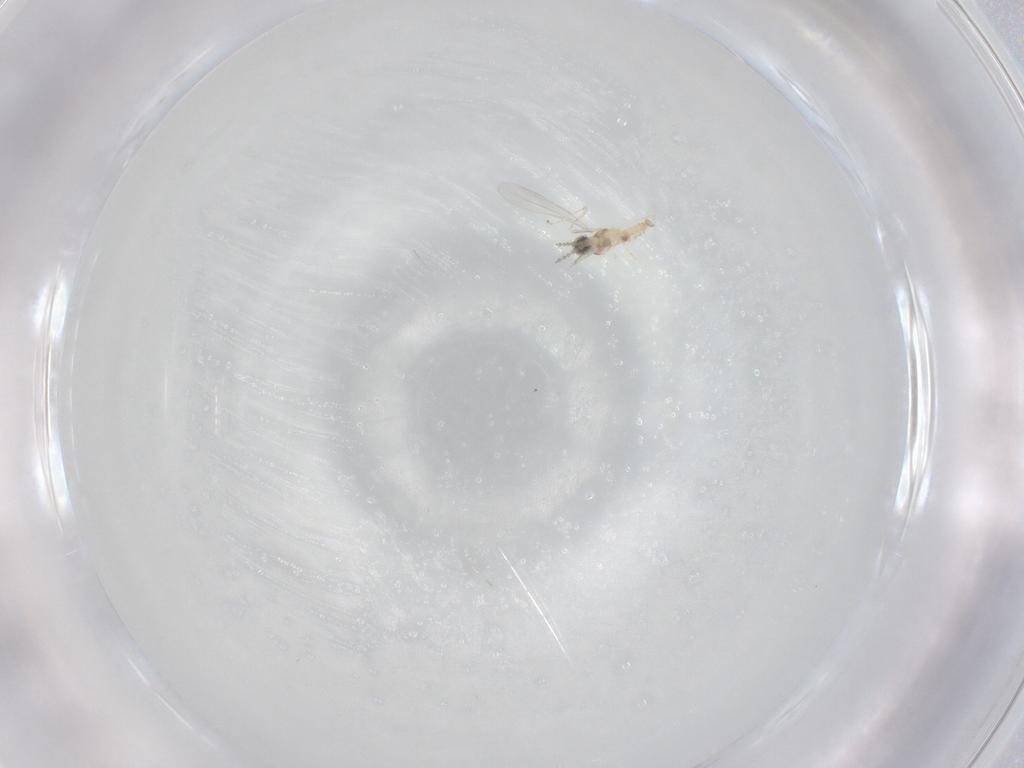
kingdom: Animalia
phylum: Arthropoda
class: Insecta
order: Diptera
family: Cecidomyiidae
